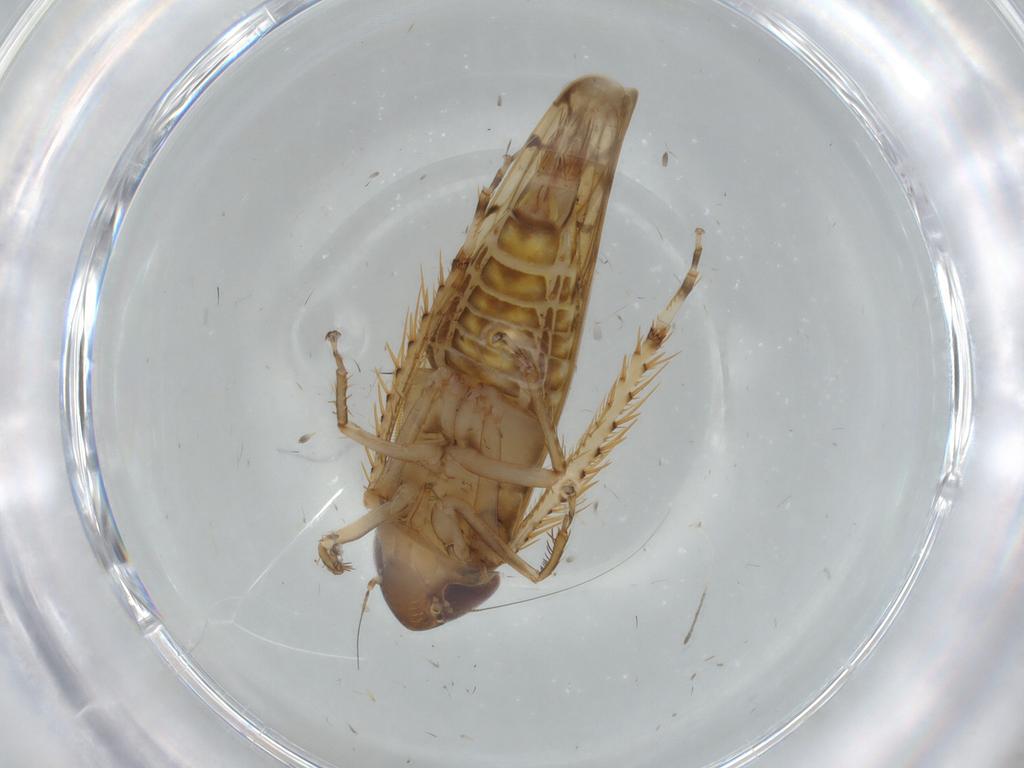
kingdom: Animalia
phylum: Arthropoda
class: Insecta
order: Hemiptera
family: Cicadellidae
